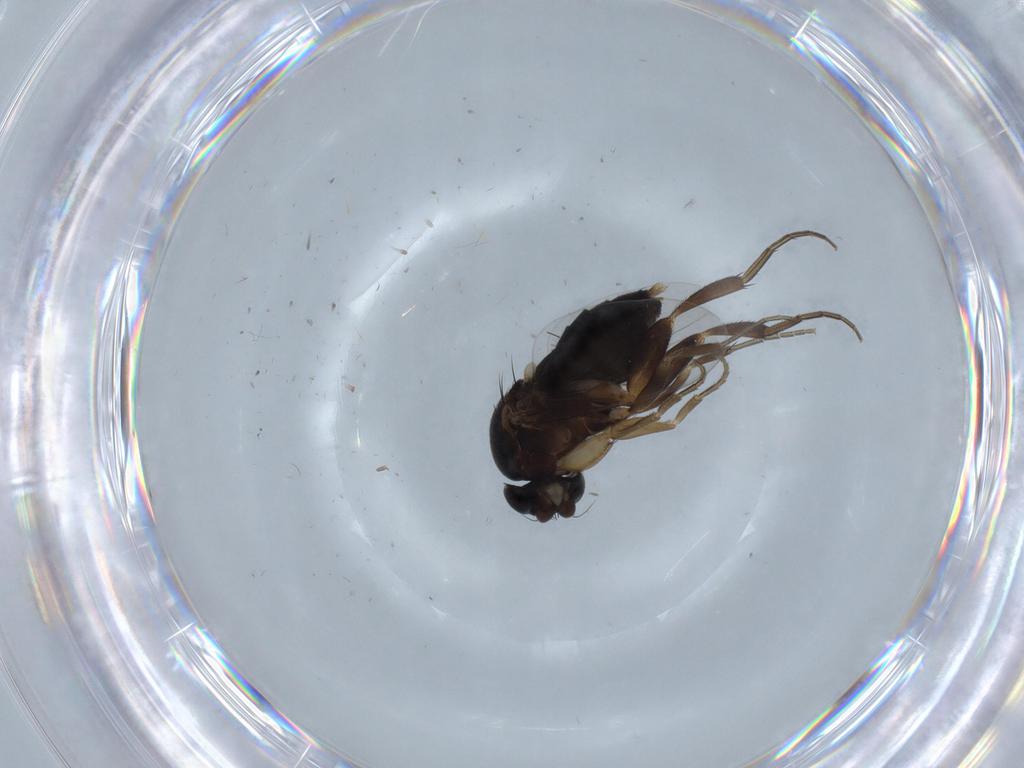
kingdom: Animalia
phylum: Arthropoda
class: Insecta
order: Diptera
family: Phoridae
